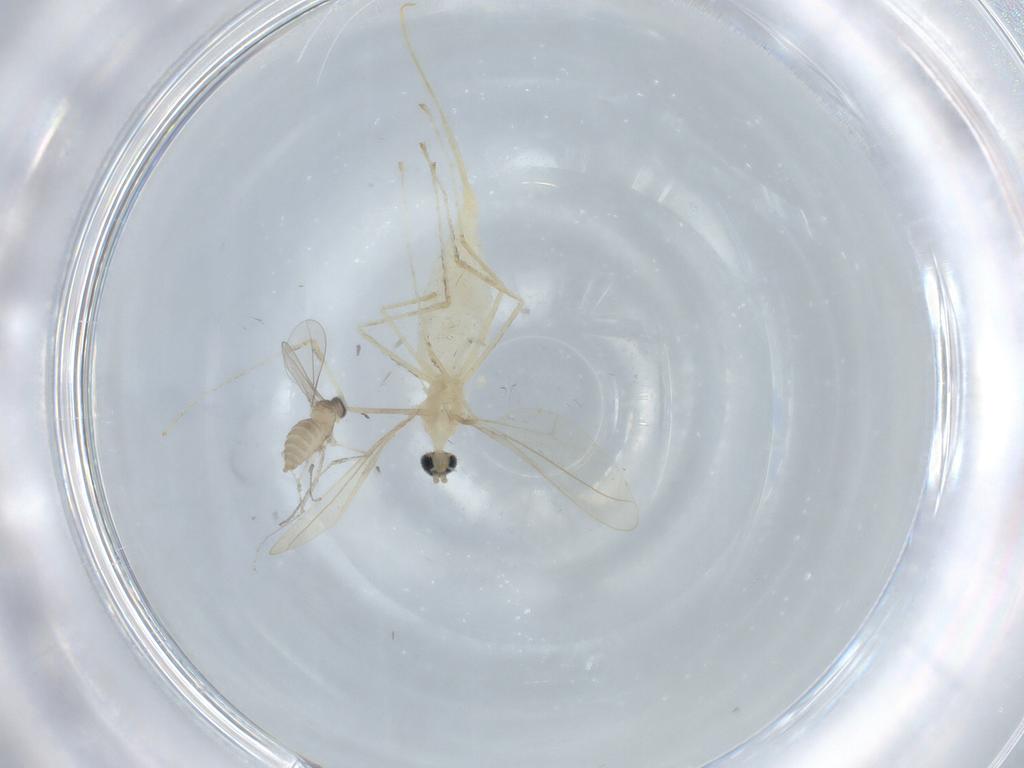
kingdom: Animalia
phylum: Arthropoda
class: Insecta
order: Diptera
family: Cecidomyiidae
